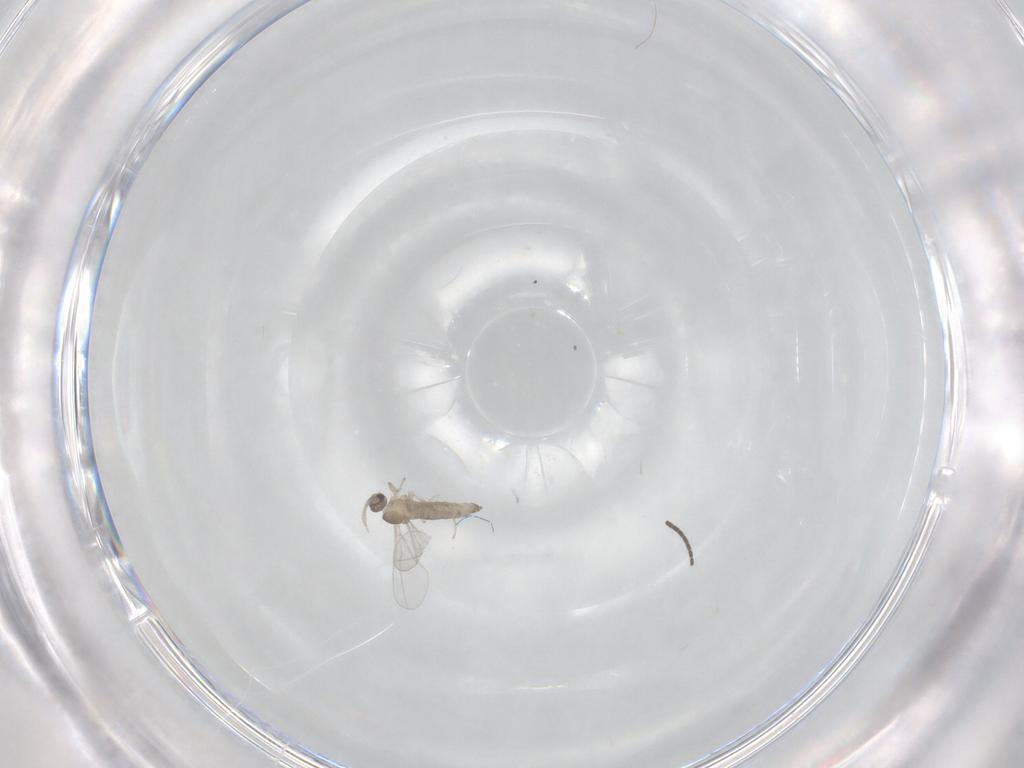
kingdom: Animalia
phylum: Arthropoda
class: Insecta
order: Diptera
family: Cecidomyiidae
